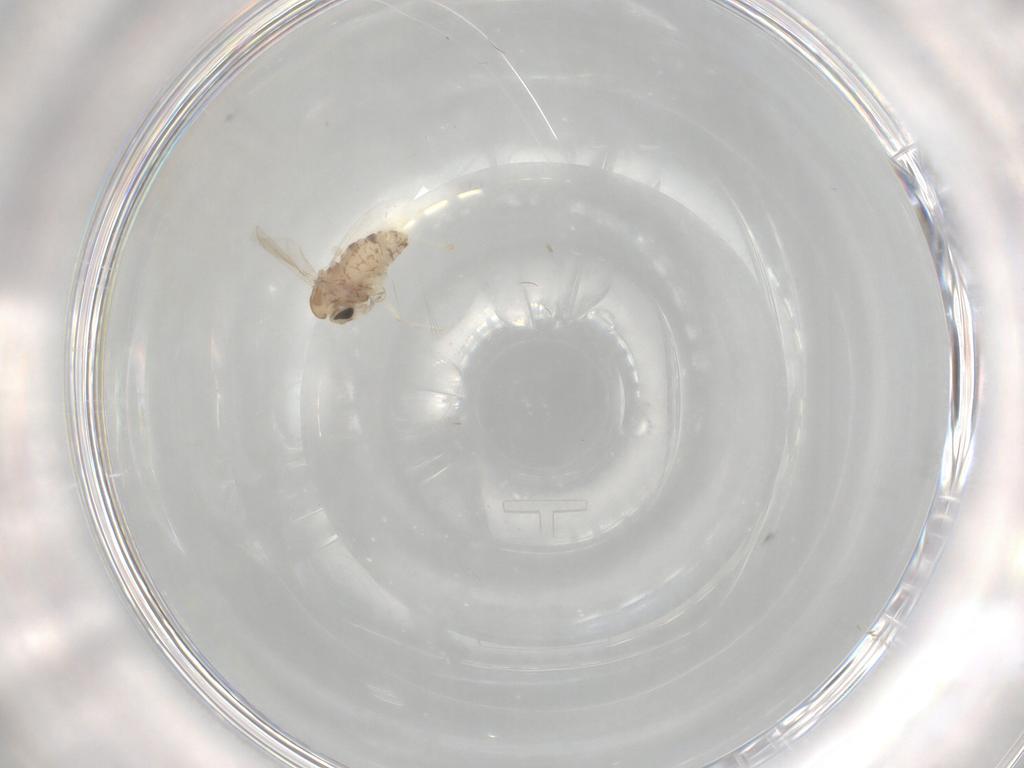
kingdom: Animalia
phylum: Arthropoda
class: Insecta
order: Diptera
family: Chironomidae
